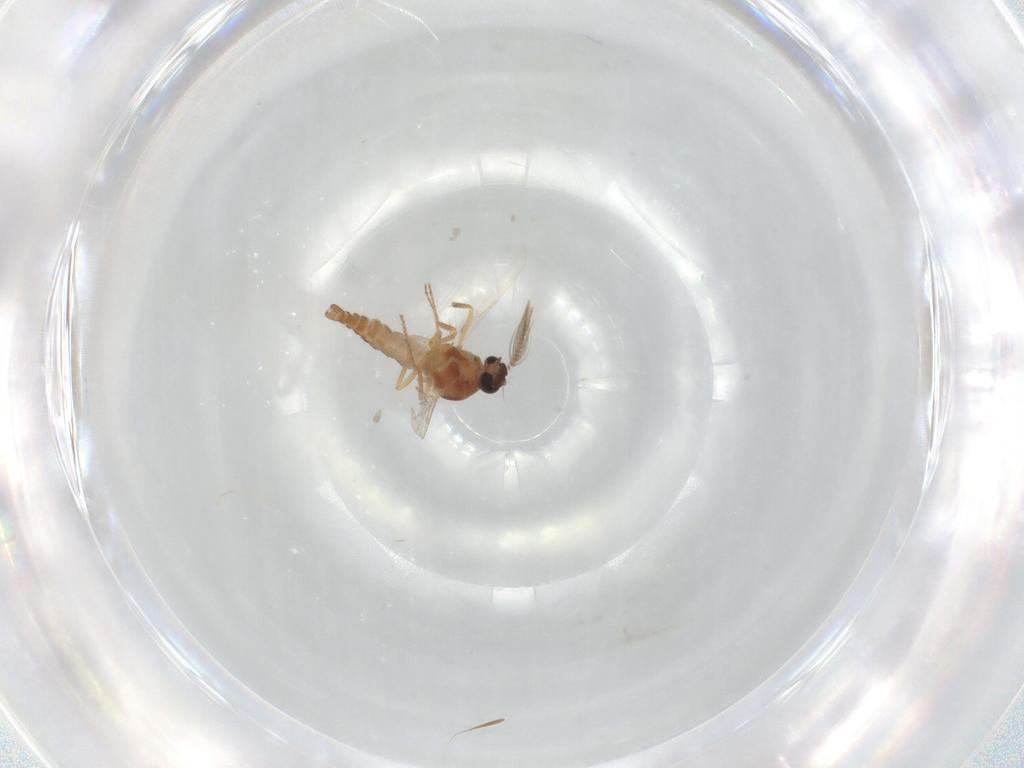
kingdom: Animalia
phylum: Arthropoda
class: Insecta
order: Diptera
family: Ceratopogonidae
